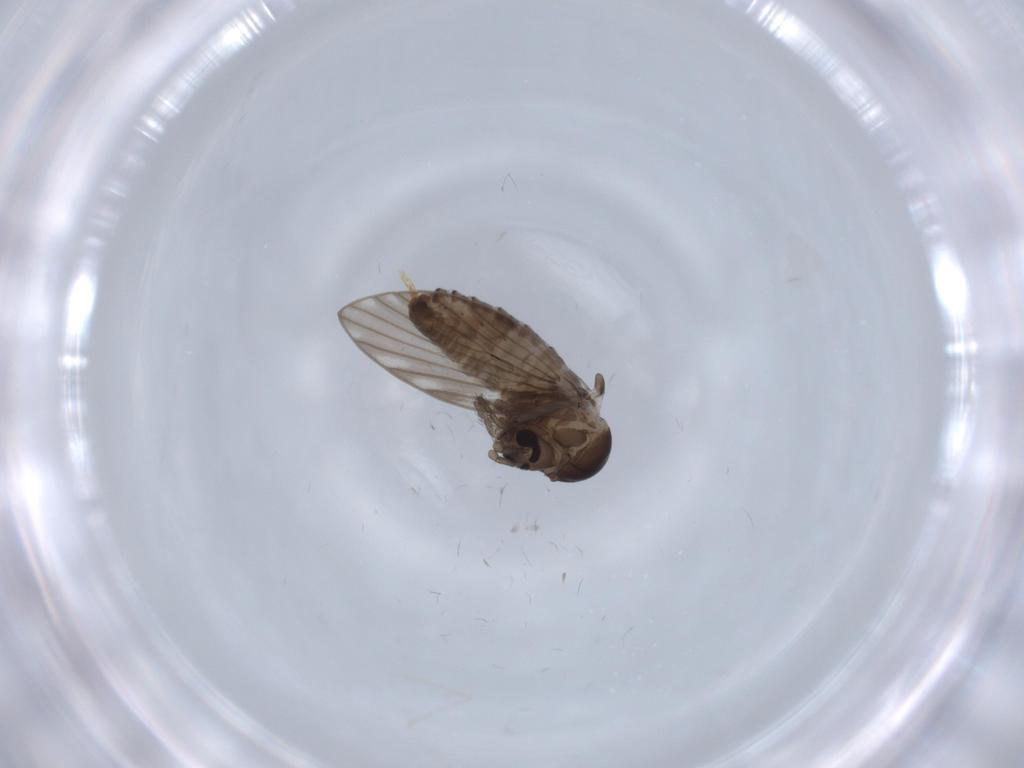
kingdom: Animalia
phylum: Arthropoda
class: Insecta
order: Diptera
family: Psychodidae
